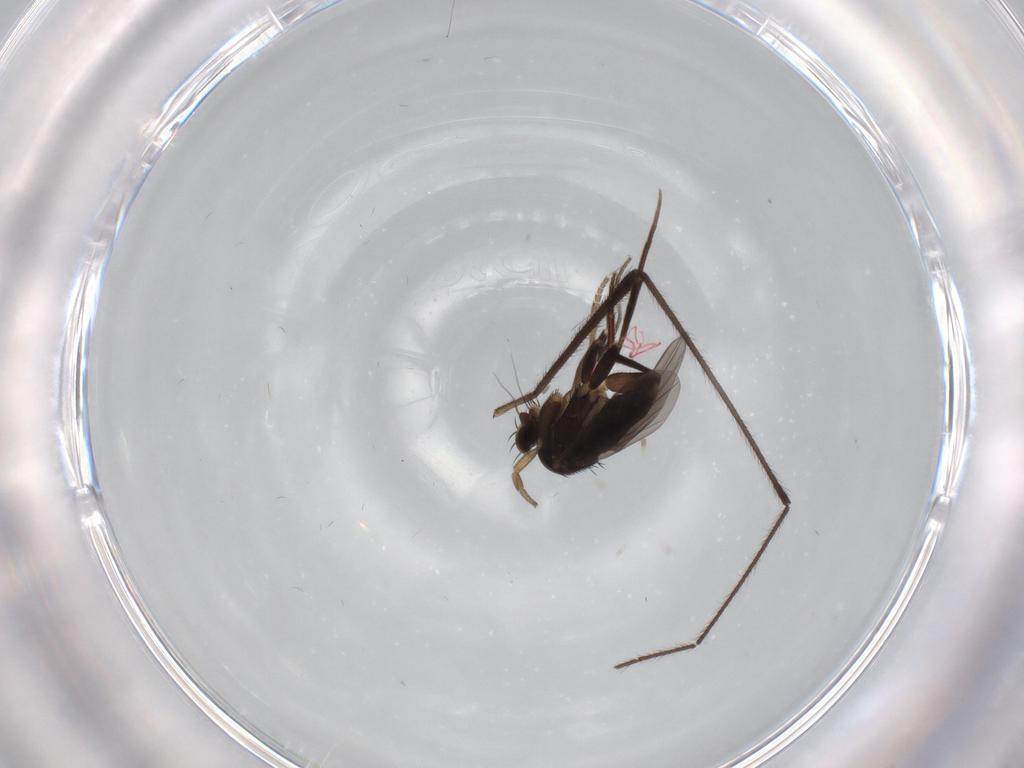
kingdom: Animalia
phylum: Arthropoda
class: Insecta
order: Diptera
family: Limoniidae
